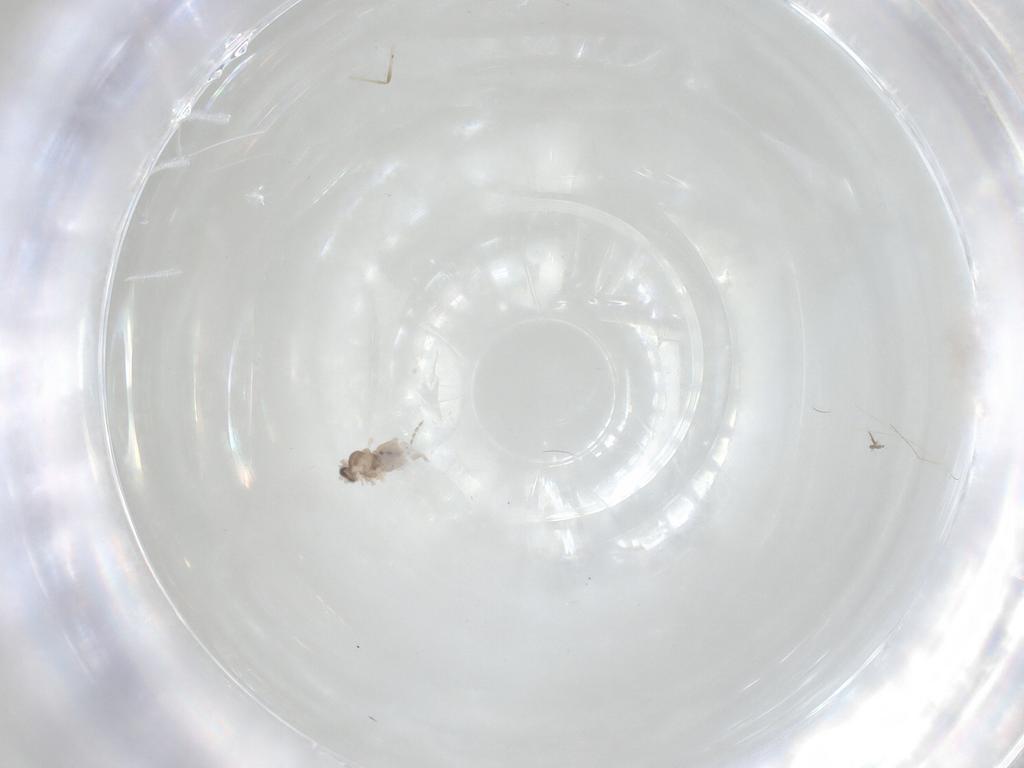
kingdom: Animalia
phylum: Arthropoda
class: Insecta
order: Diptera
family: Cecidomyiidae
